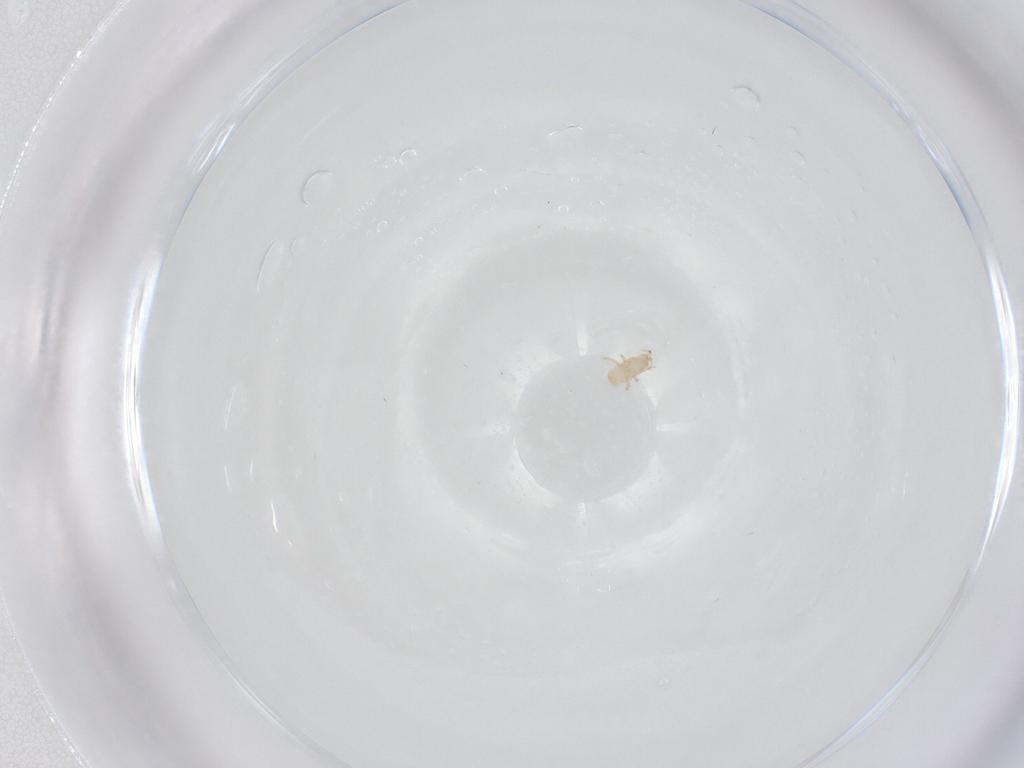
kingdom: Animalia
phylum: Arthropoda
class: Arachnida
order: Mesostigmata
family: Ascidae
